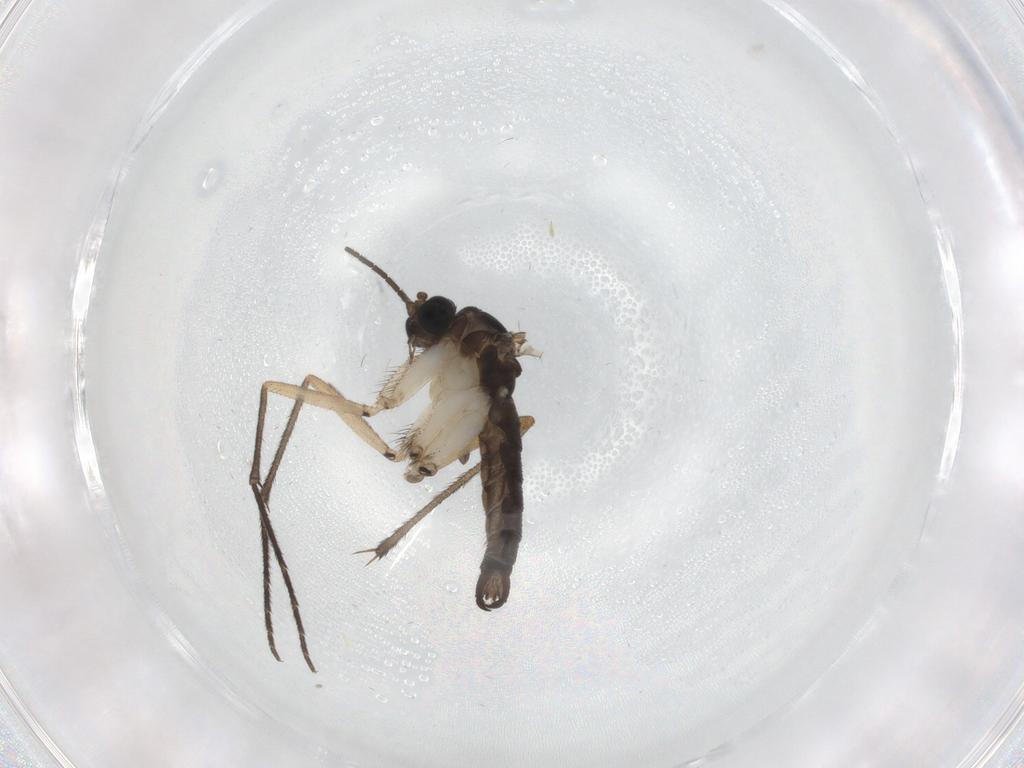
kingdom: Animalia
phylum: Arthropoda
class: Insecta
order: Diptera
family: Sciaridae
